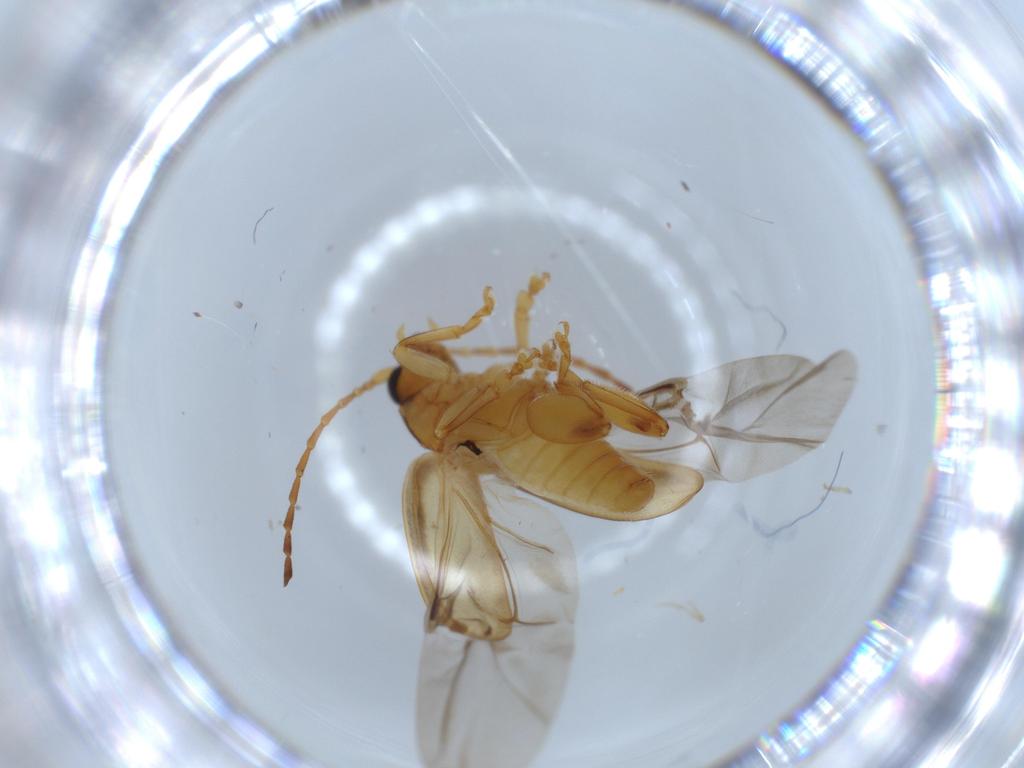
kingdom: Animalia
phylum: Arthropoda
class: Insecta
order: Coleoptera
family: Chrysomelidae
